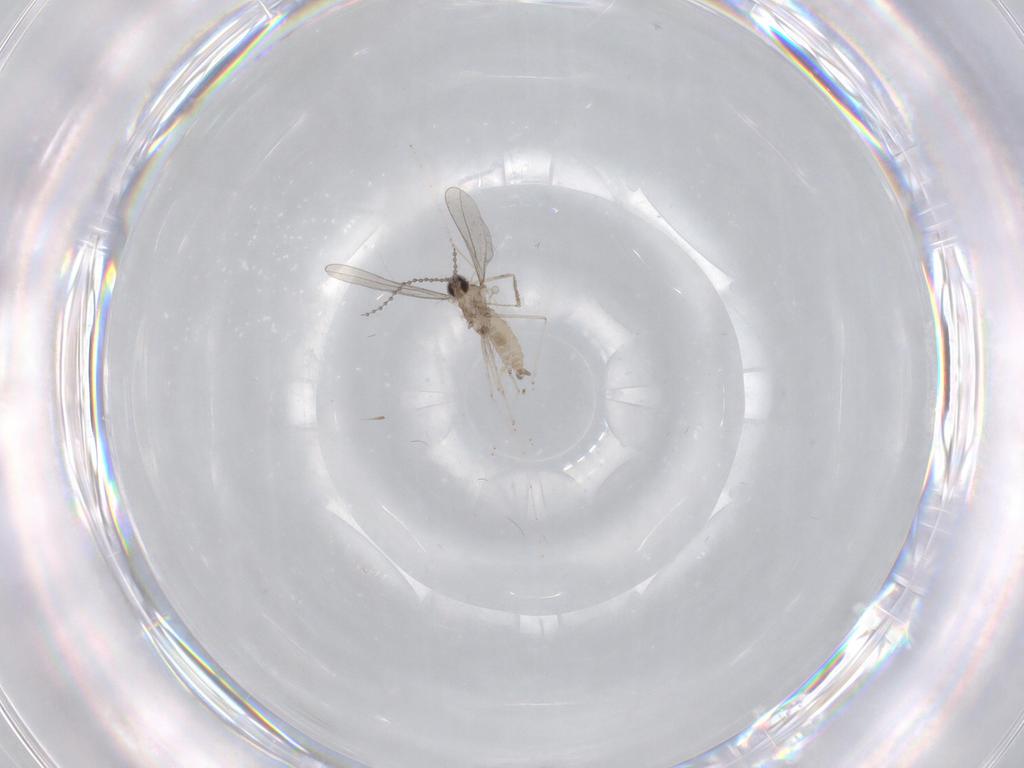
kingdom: Animalia
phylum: Arthropoda
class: Insecta
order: Diptera
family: Cecidomyiidae
